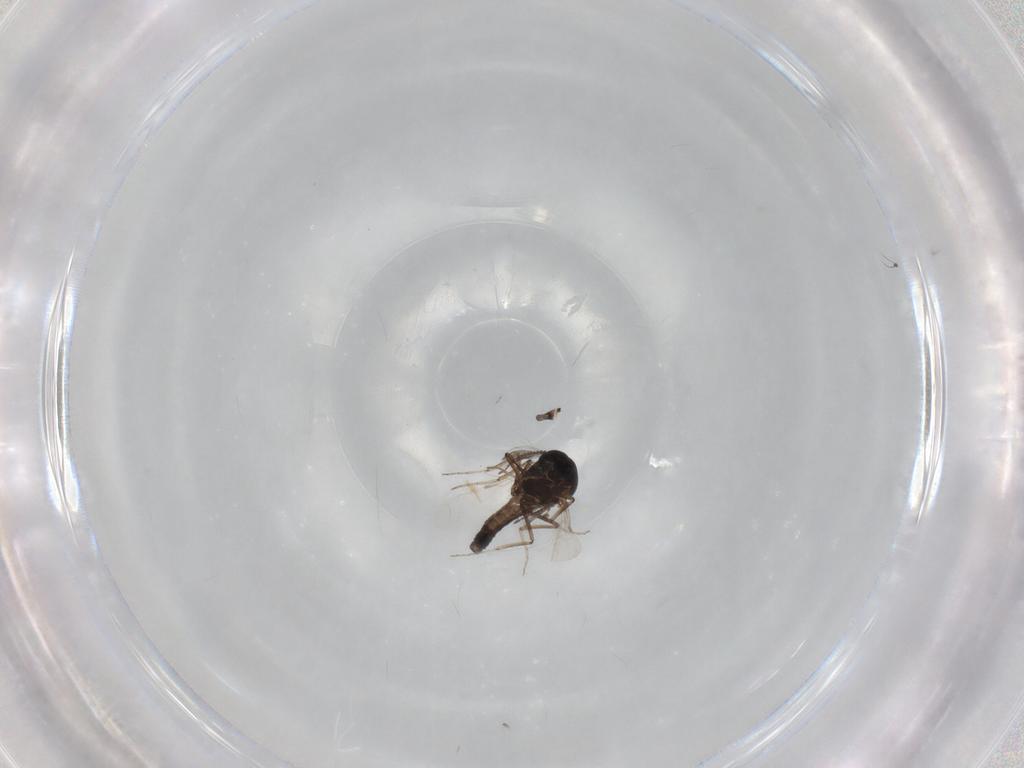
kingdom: Animalia
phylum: Arthropoda
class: Insecta
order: Diptera
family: Ceratopogonidae
